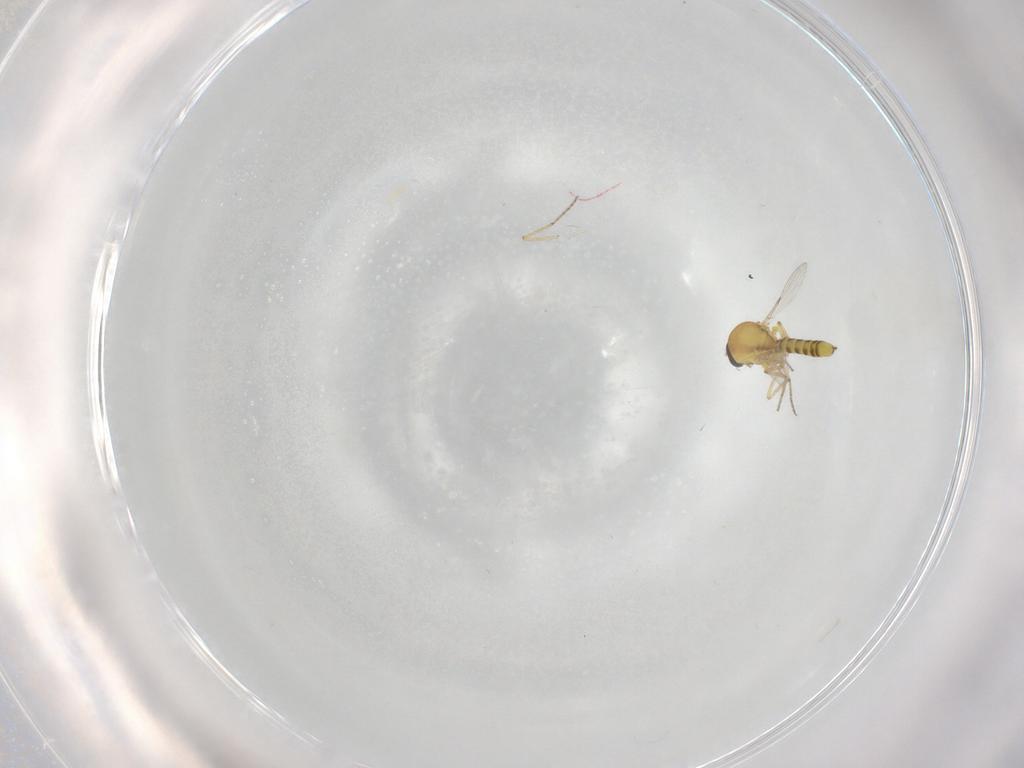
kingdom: Animalia
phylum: Arthropoda
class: Insecta
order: Diptera
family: Ceratopogonidae
